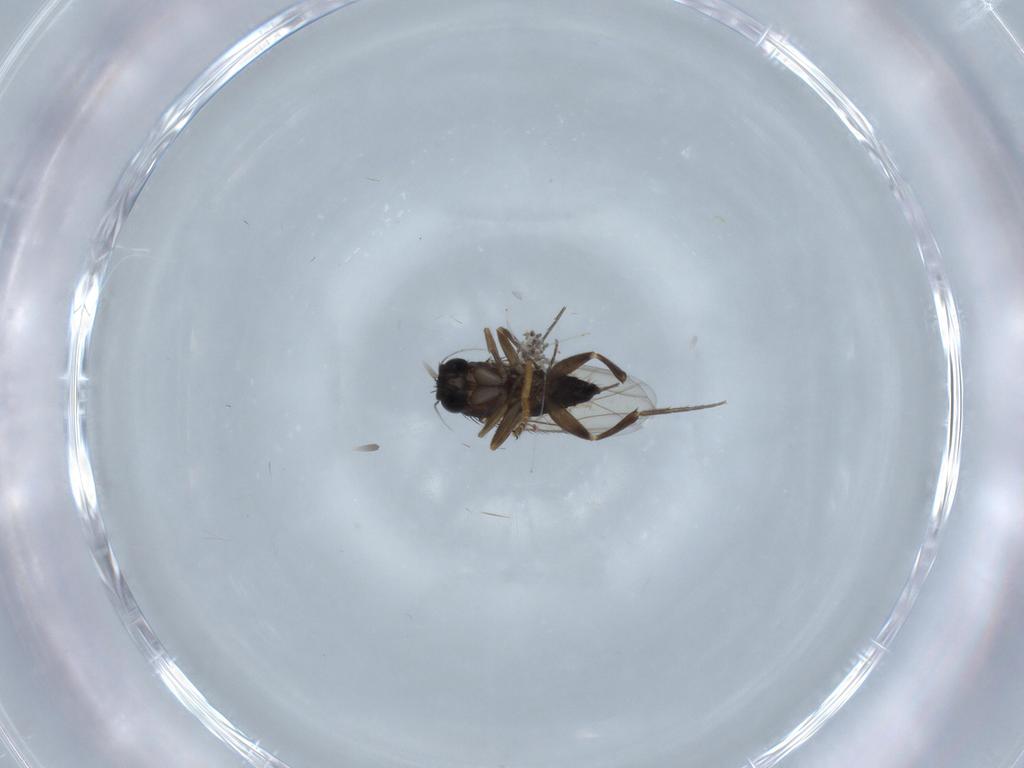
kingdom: Animalia
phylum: Arthropoda
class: Insecta
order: Diptera
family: Phoridae
